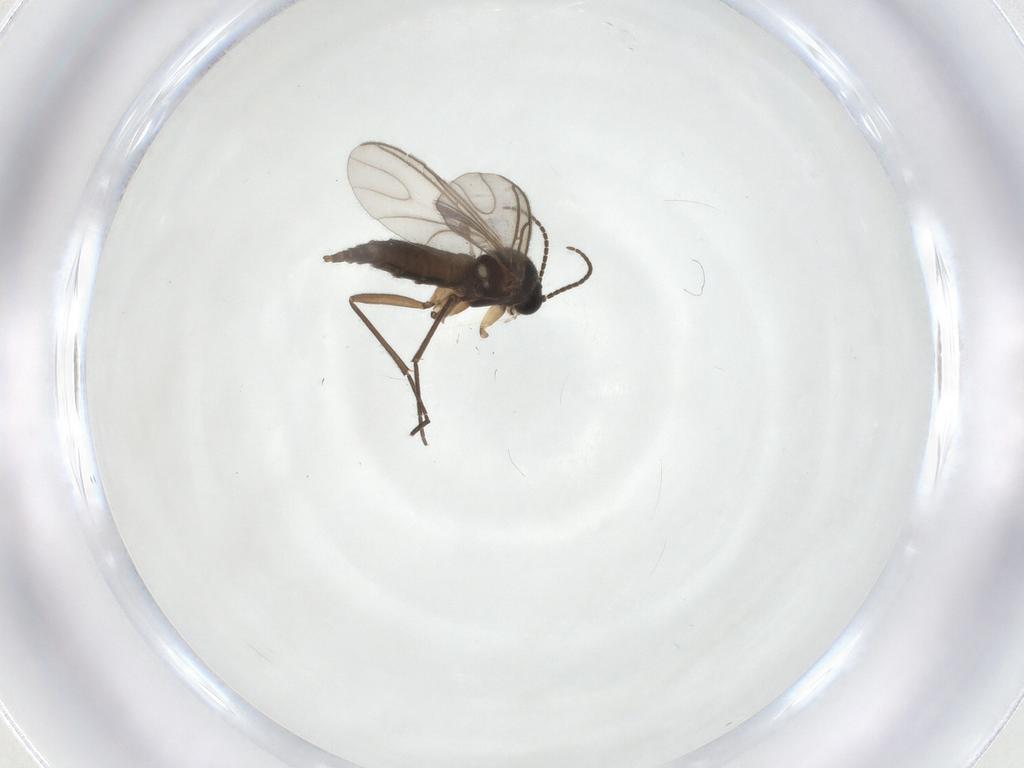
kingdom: Animalia
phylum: Arthropoda
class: Insecta
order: Diptera
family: Sciaridae
